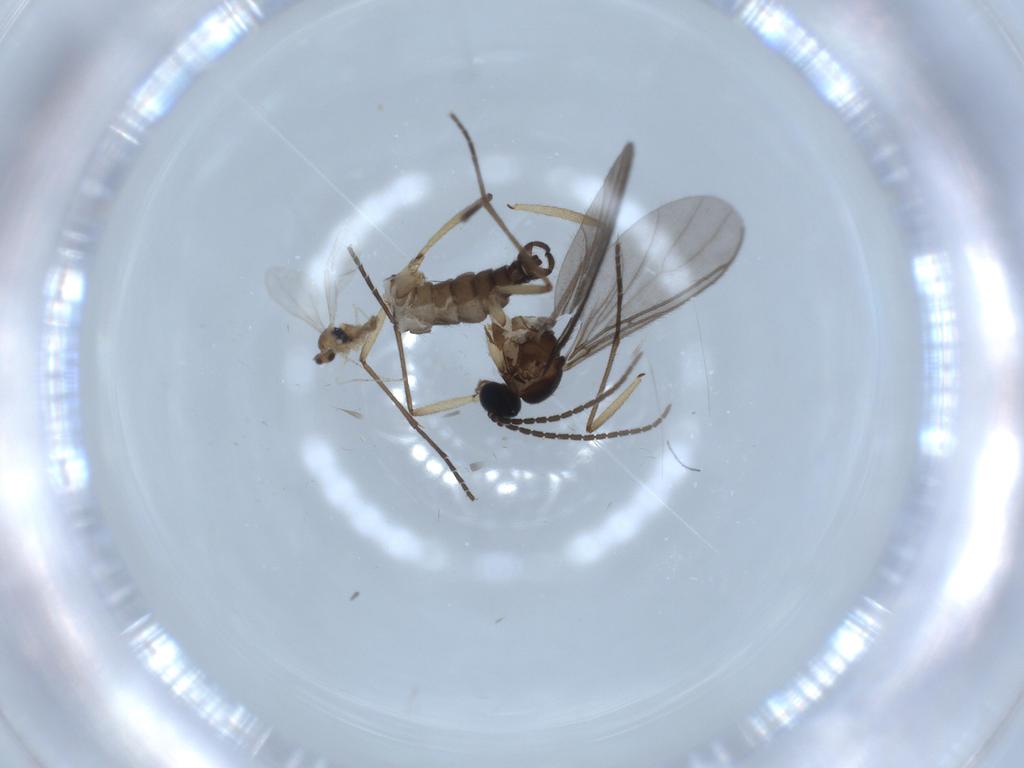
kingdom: Animalia
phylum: Arthropoda
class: Insecta
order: Diptera
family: Cecidomyiidae
